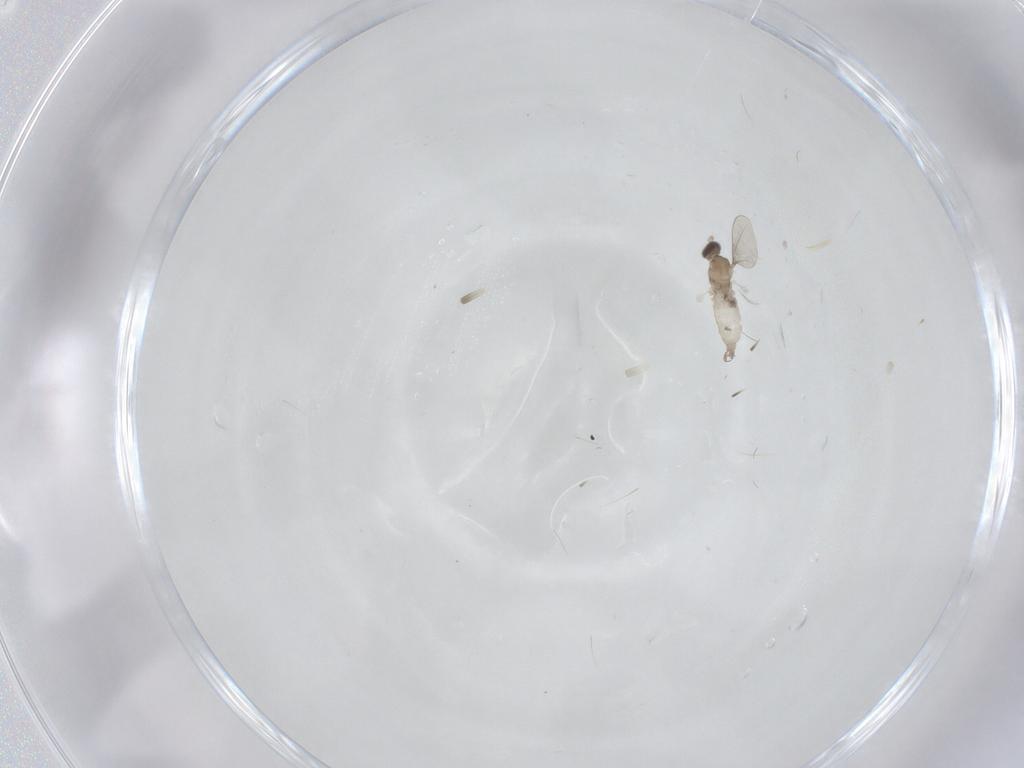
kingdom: Animalia
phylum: Arthropoda
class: Insecta
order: Diptera
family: Cecidomyiidae
